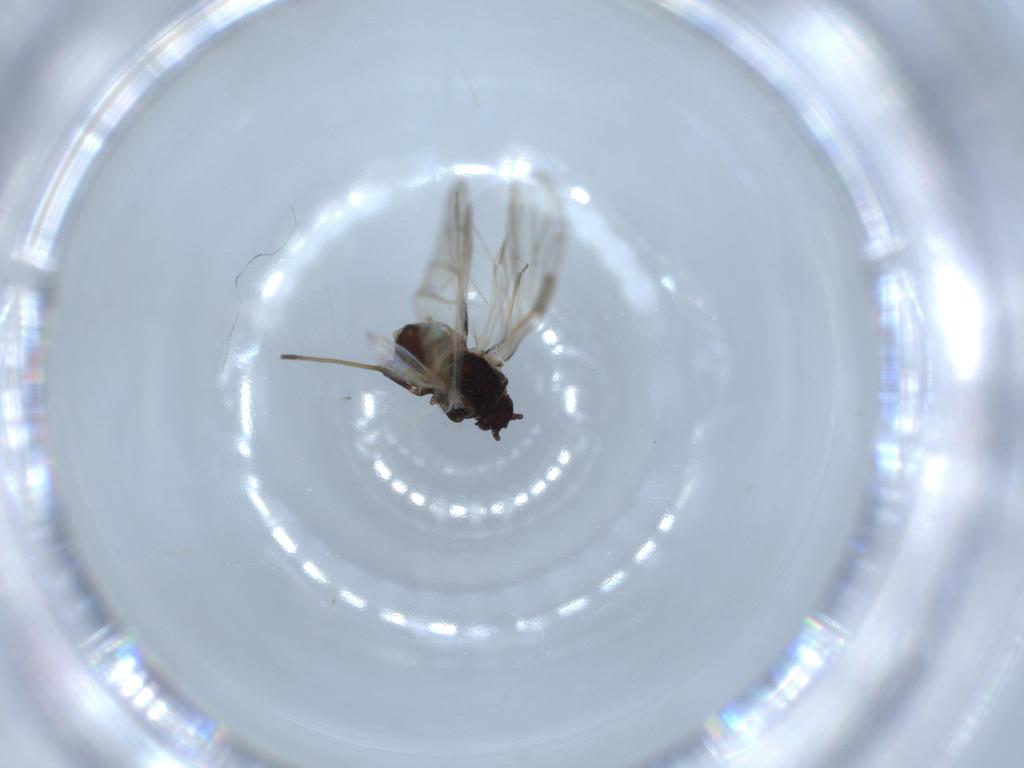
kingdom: Animalia
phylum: Arthropoda
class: Insecta
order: Hemiptera
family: Aphididae
